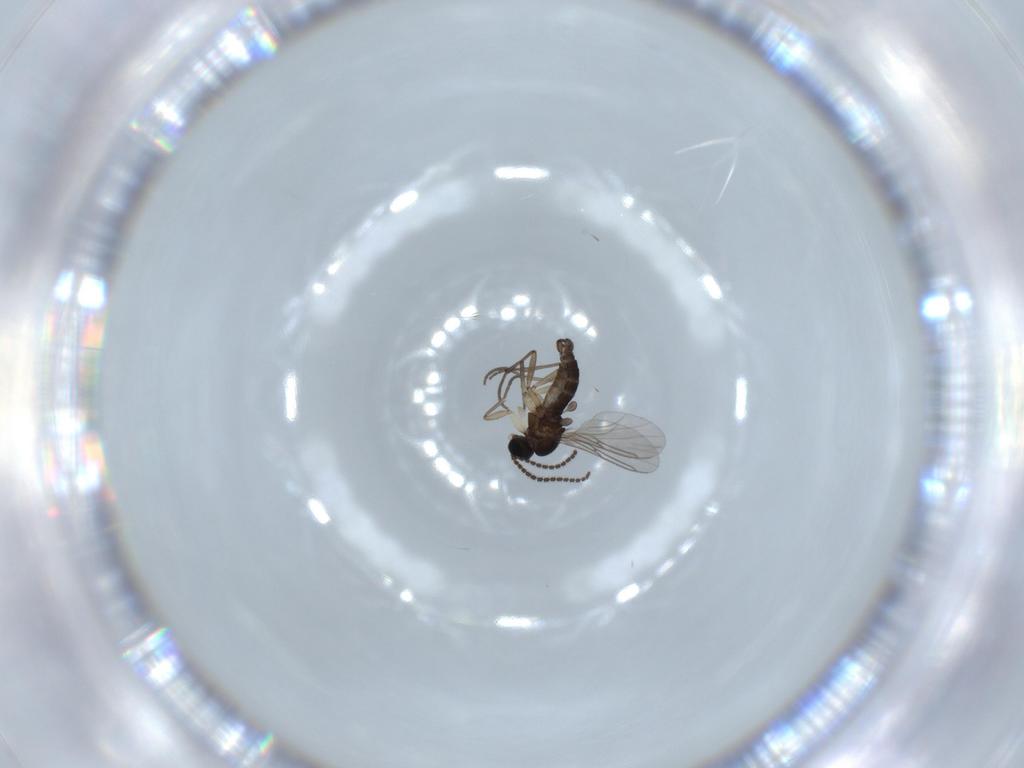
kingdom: Animalia
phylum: Arthropoda
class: Insecta
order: Diptera
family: Sciaridae
